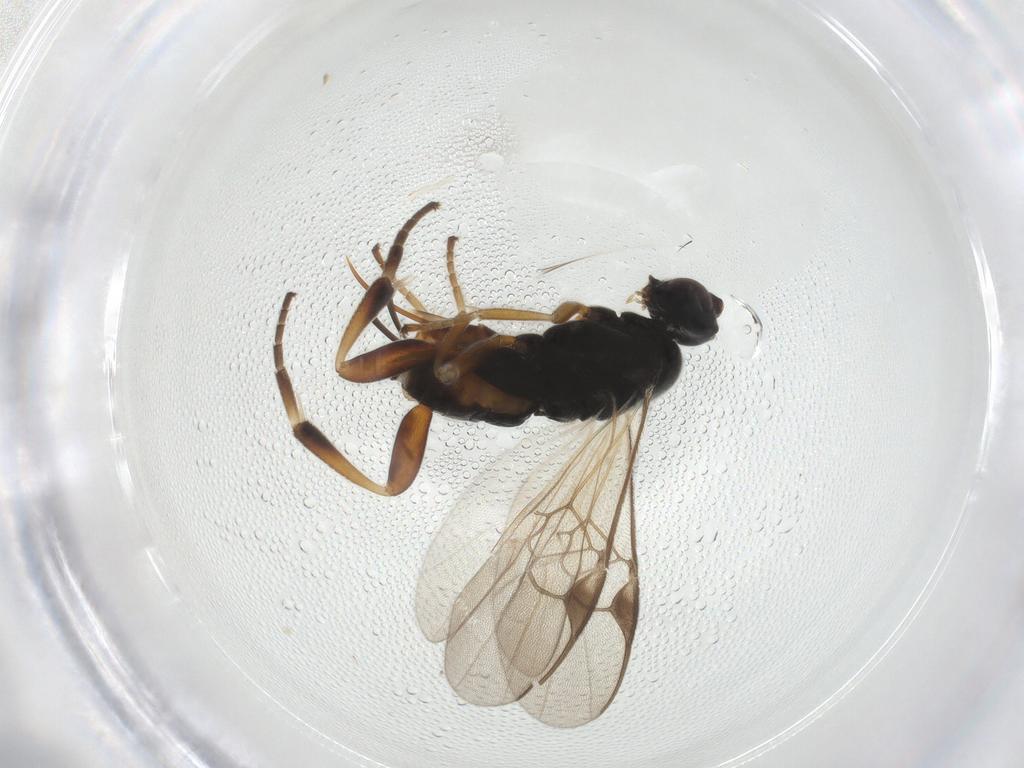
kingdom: Animalia
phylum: Arthropoda
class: Insecta
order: Hymenoptera
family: Braconidae
